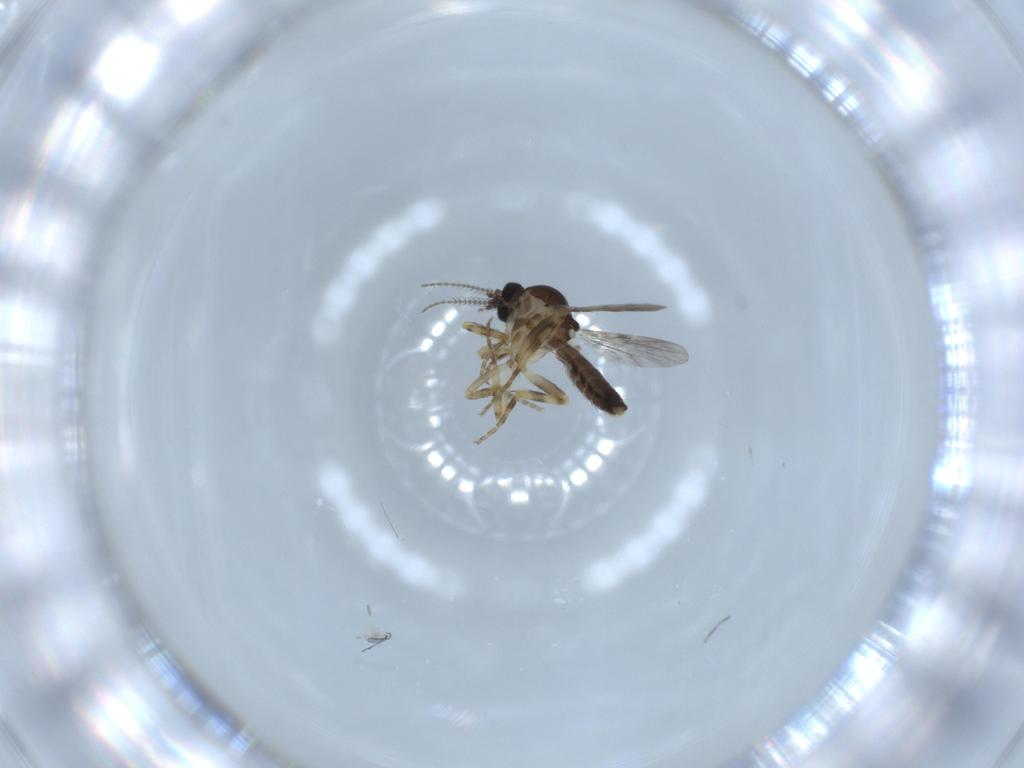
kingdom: Animalia
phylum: Arthropoda
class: Insecta
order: Diptera
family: Ceratopogonidae
